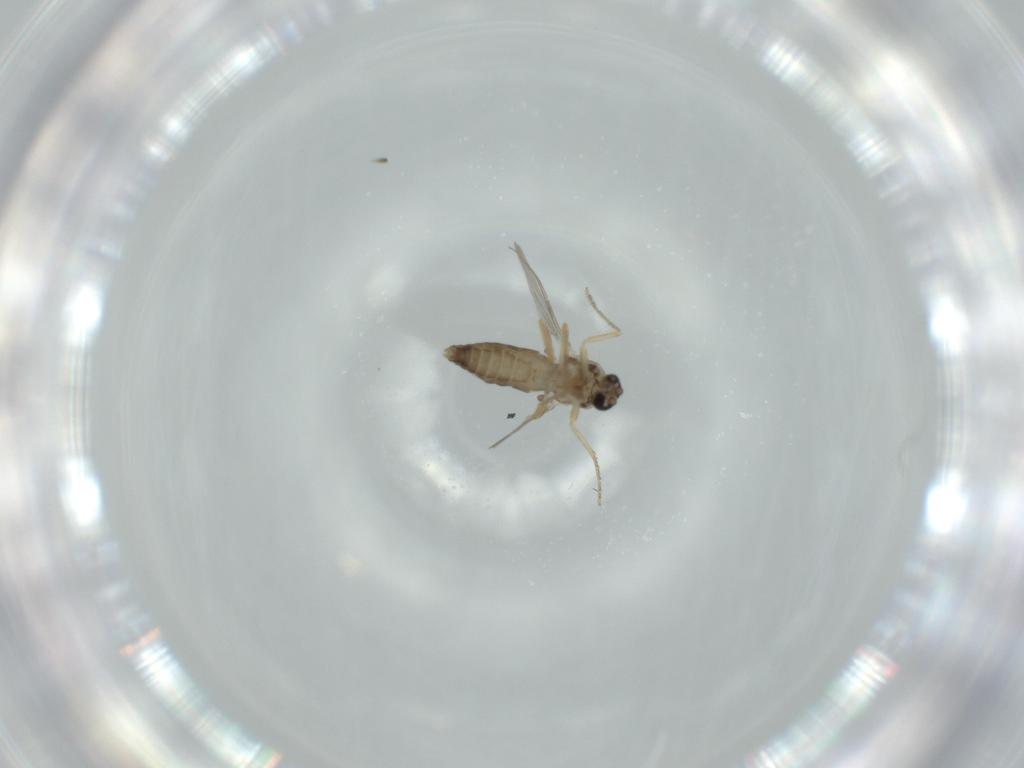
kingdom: Animalia
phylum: Arthropoda
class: Insecta
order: Diptera
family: Ceratopogonidae
